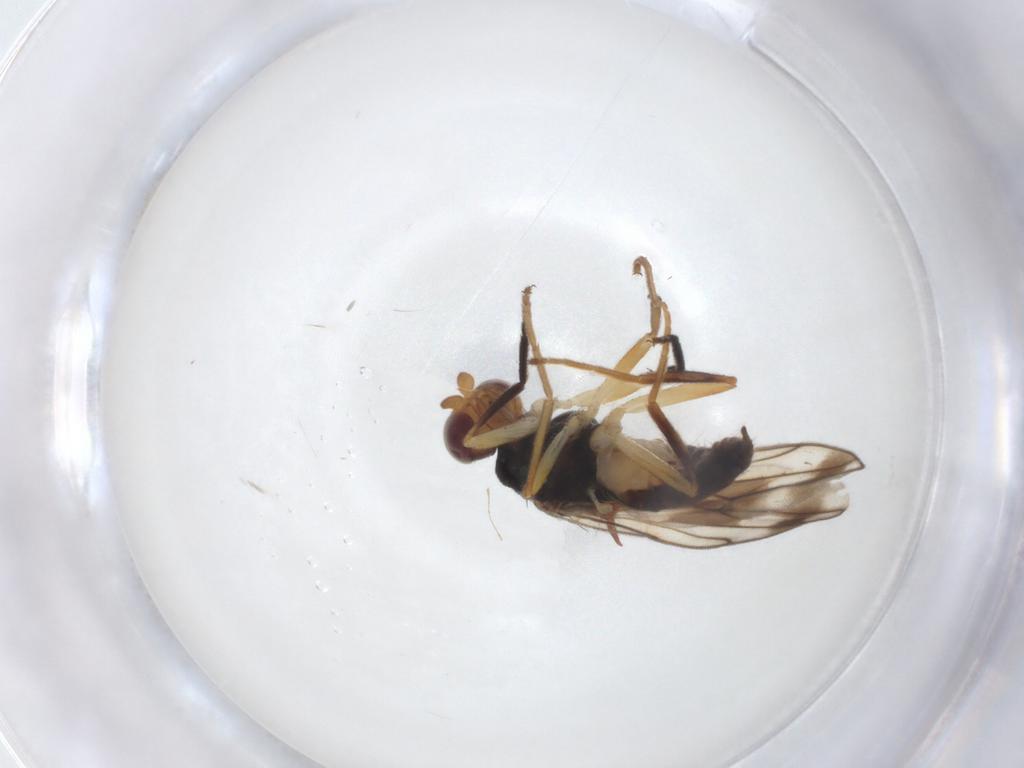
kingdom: Animalia
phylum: Arthropoda
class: Insecta
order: Diptera
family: Chloropidae
